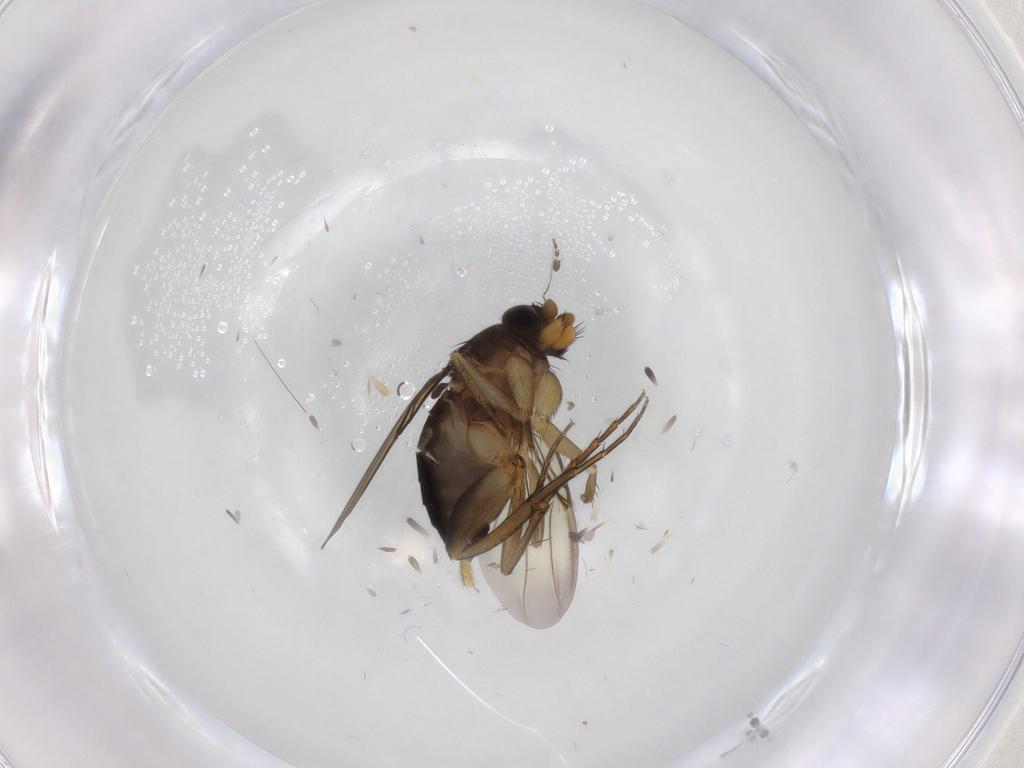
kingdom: Animalia
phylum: Arthropoda
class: Insecta
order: Diptera
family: Phoridae
